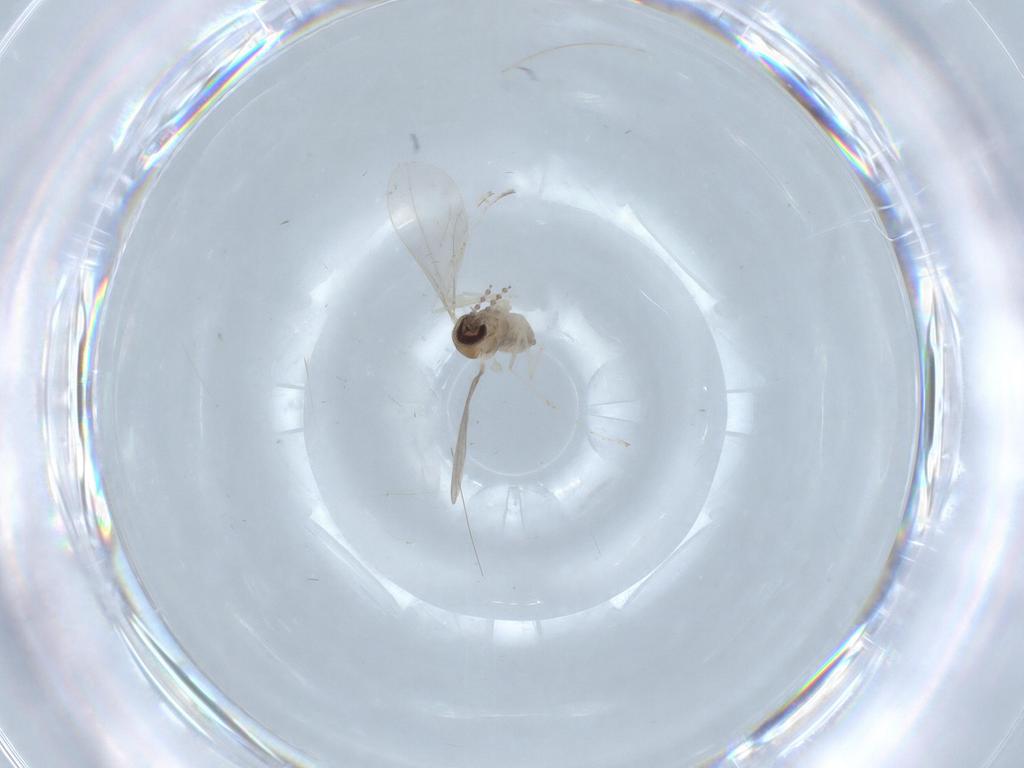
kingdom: Animalia
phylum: Arthropoda
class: Insecta
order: Diptera
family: Cecidomyiidae
